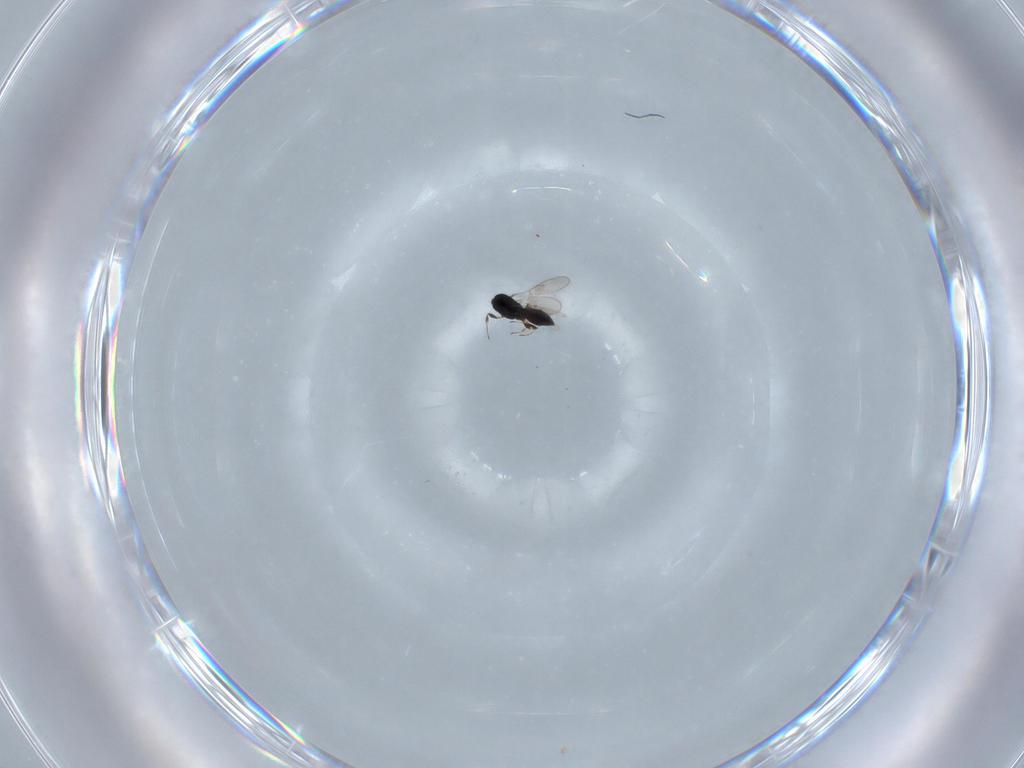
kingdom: Animalia
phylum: Arthropoda
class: Insecta
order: Hymenoptera
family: Scelionidae
